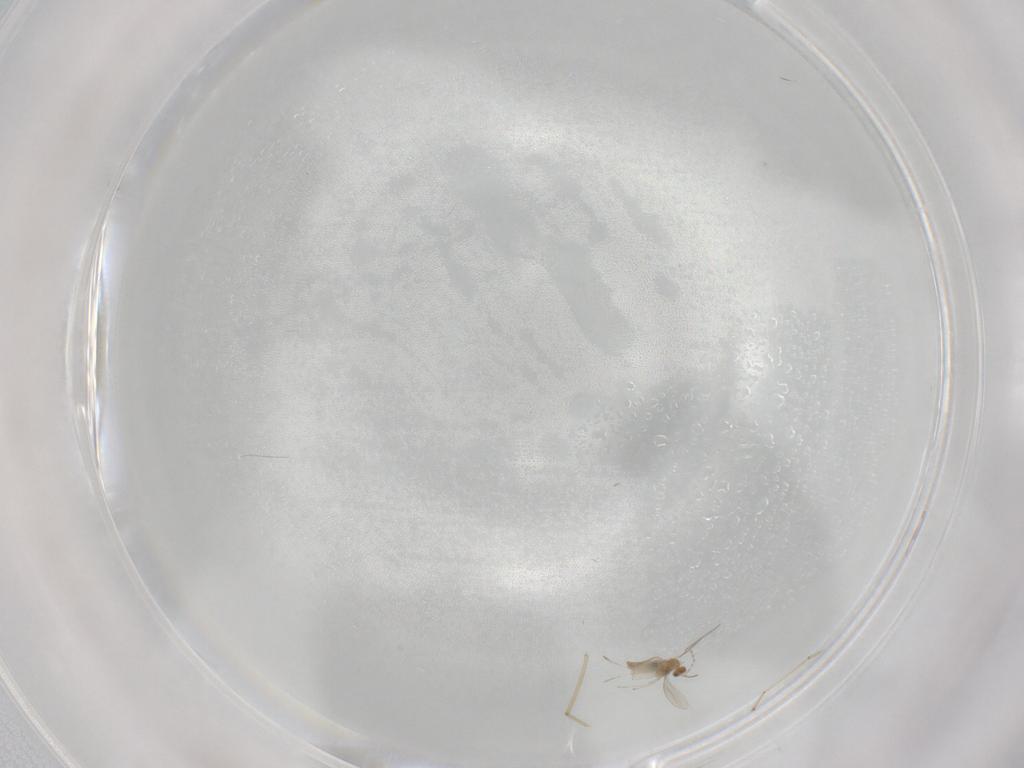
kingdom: Animalia
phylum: Arthropoda
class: Insecta
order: Diptera
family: Cecidomyiidae
